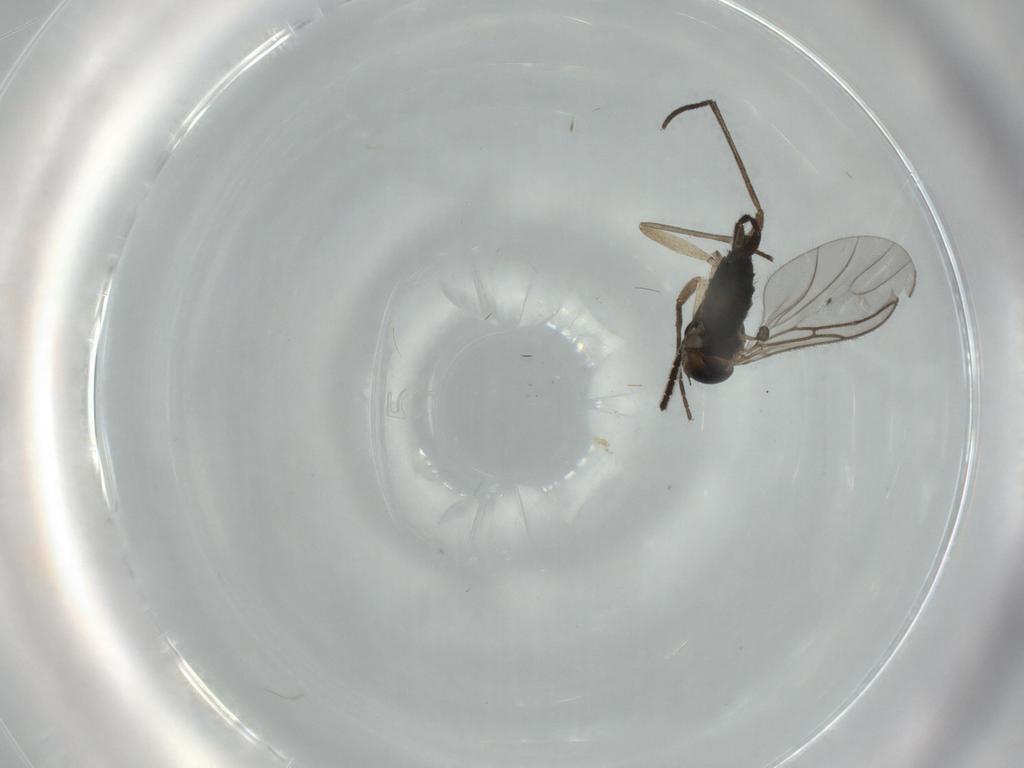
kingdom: Animalia
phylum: Arthropoda
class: Insecta
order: Diptera
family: Sciaridae
